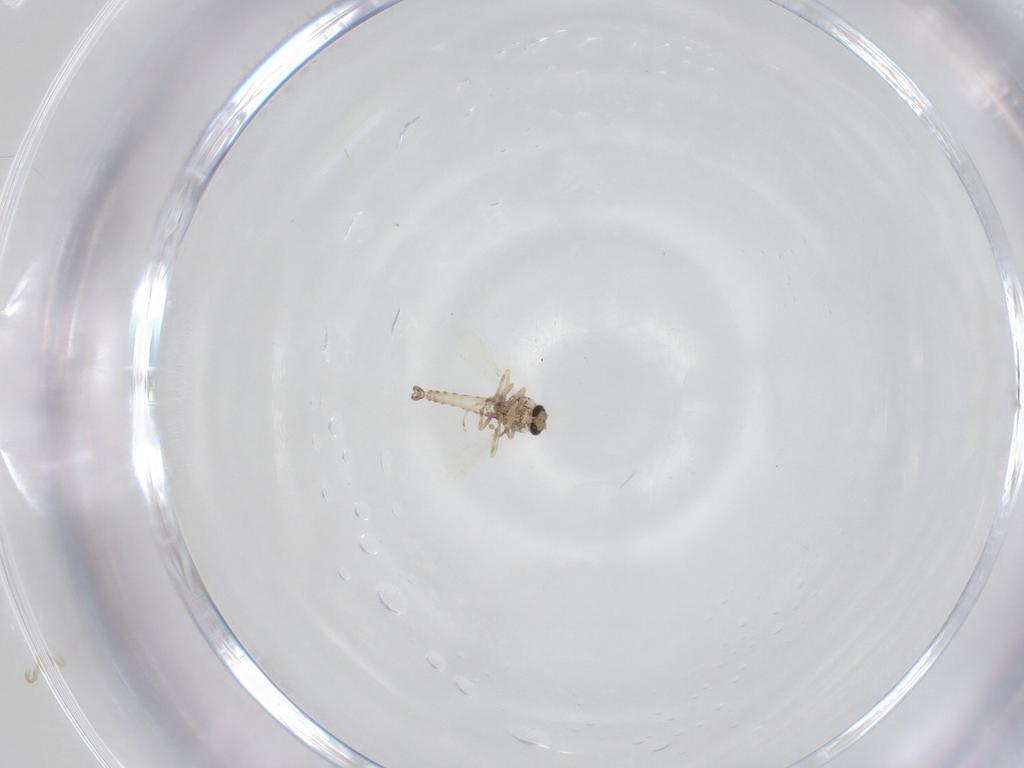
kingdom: Animalia
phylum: Arthropoda
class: Insecta
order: Diptera
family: Ceratopogonidae
